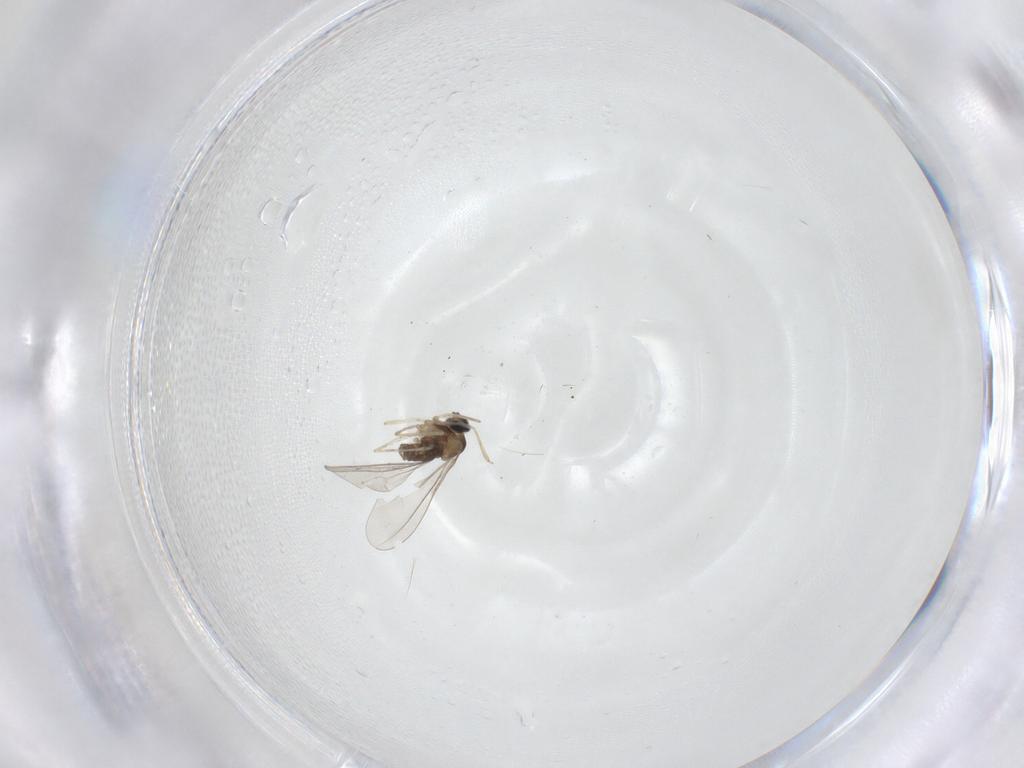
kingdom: Animalia
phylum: Arthropoda
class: Insecta
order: Diptera
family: Cecidomyiidae
